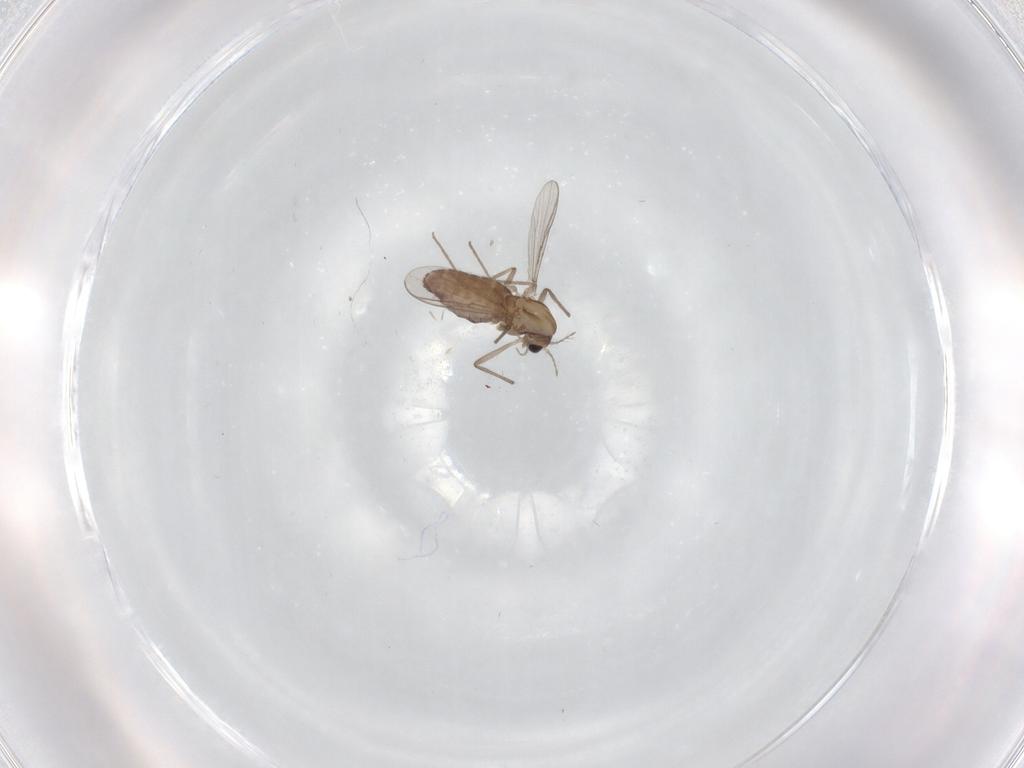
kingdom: Animalia
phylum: Arthropoda
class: Insecta
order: Diptera
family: Chironomidae
